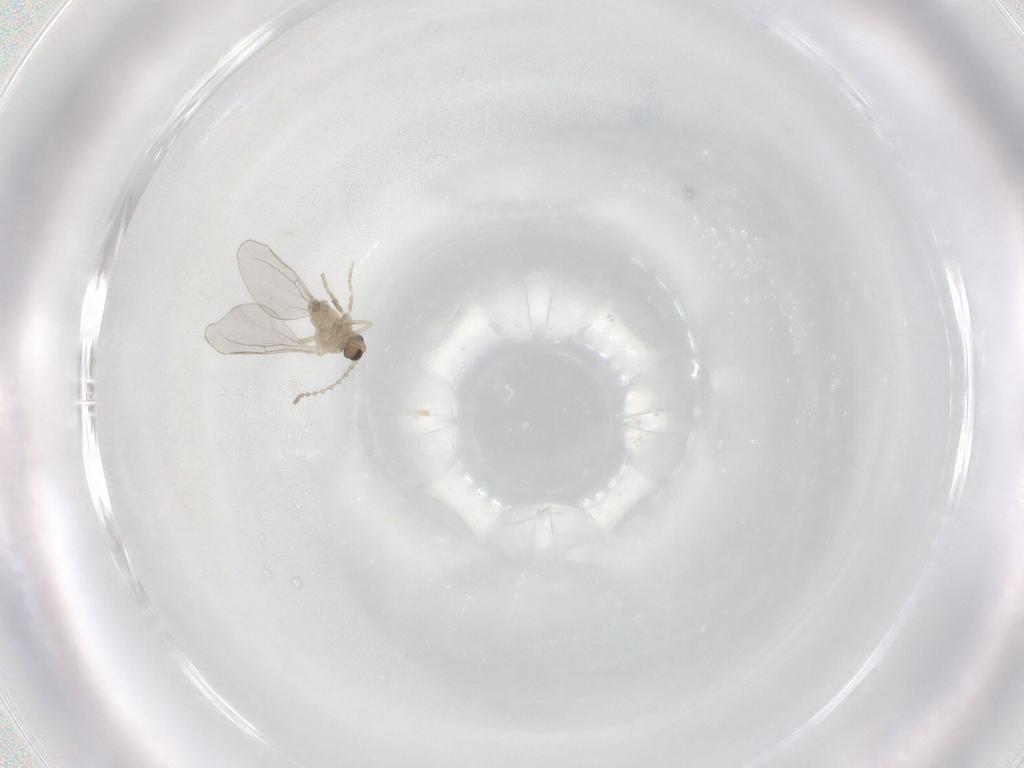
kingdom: Animalia
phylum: Arthropoda
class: Insecta
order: Diptera
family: Cecidomyiidae
